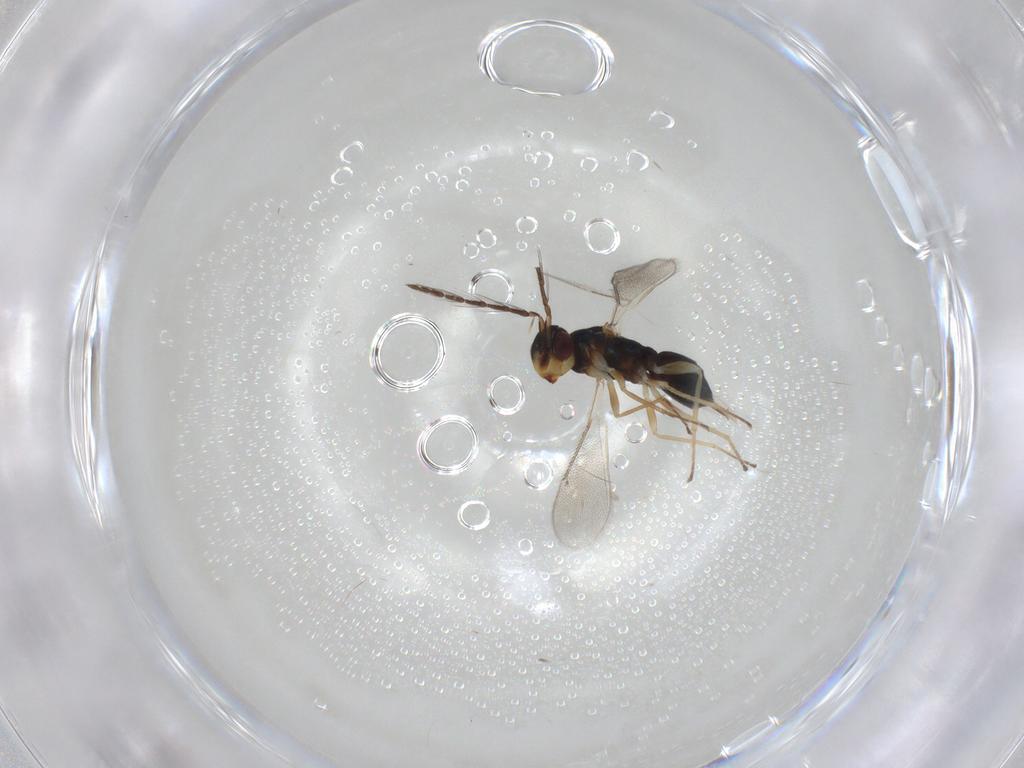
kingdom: Animalia
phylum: Arthropoda
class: Insecta
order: Hymenoptera
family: Eulophidae
